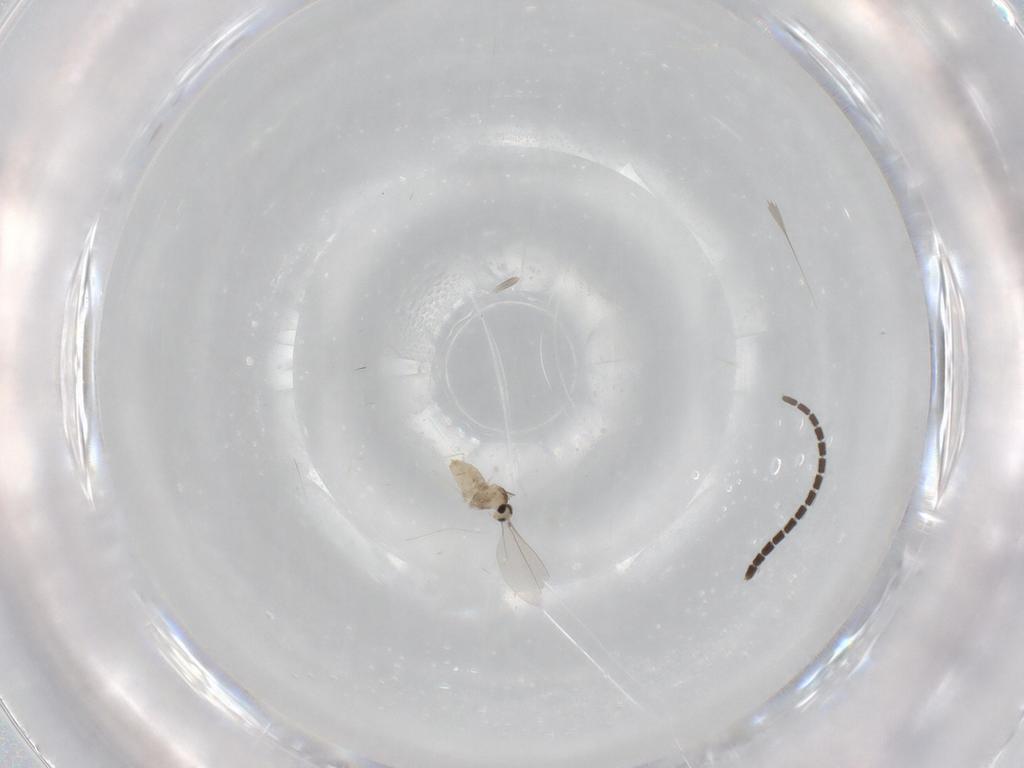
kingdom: Animalia
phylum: Arthropoda
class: Insecta
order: Diptera
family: Cecidomyiidae
